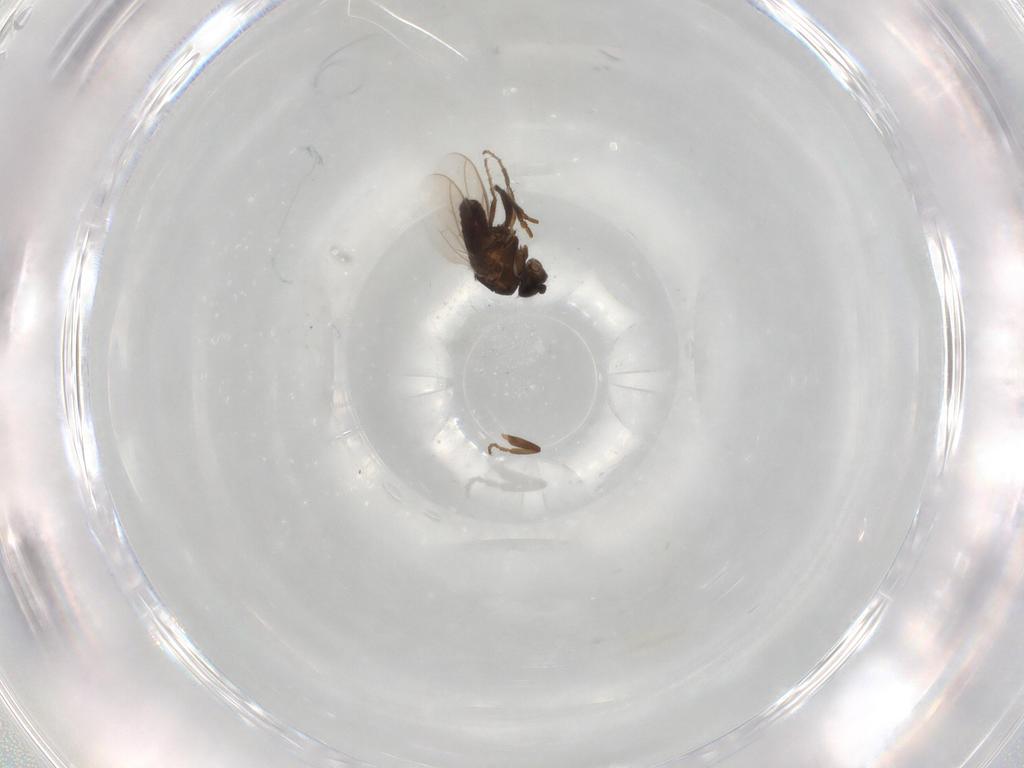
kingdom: Animalia
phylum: Arthropoda
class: Insecta
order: Diptera
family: Sphaeroceridae
